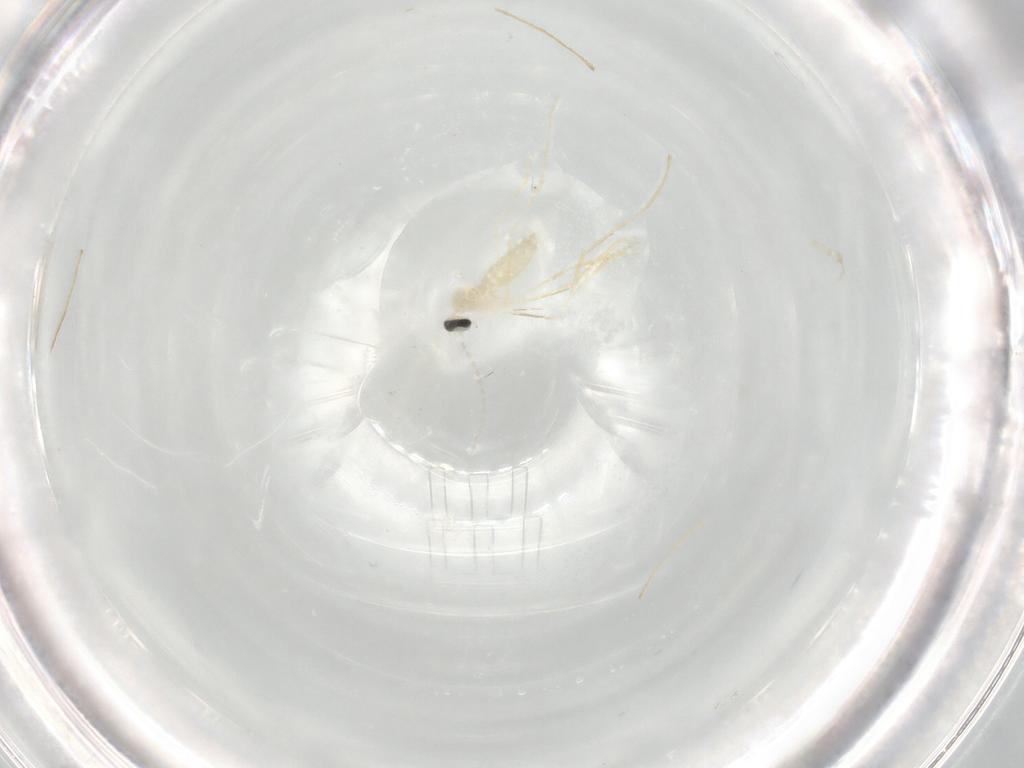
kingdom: Animalia
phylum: Arthropoda
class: Insecta
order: Diptera
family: Cecidomyiidae
